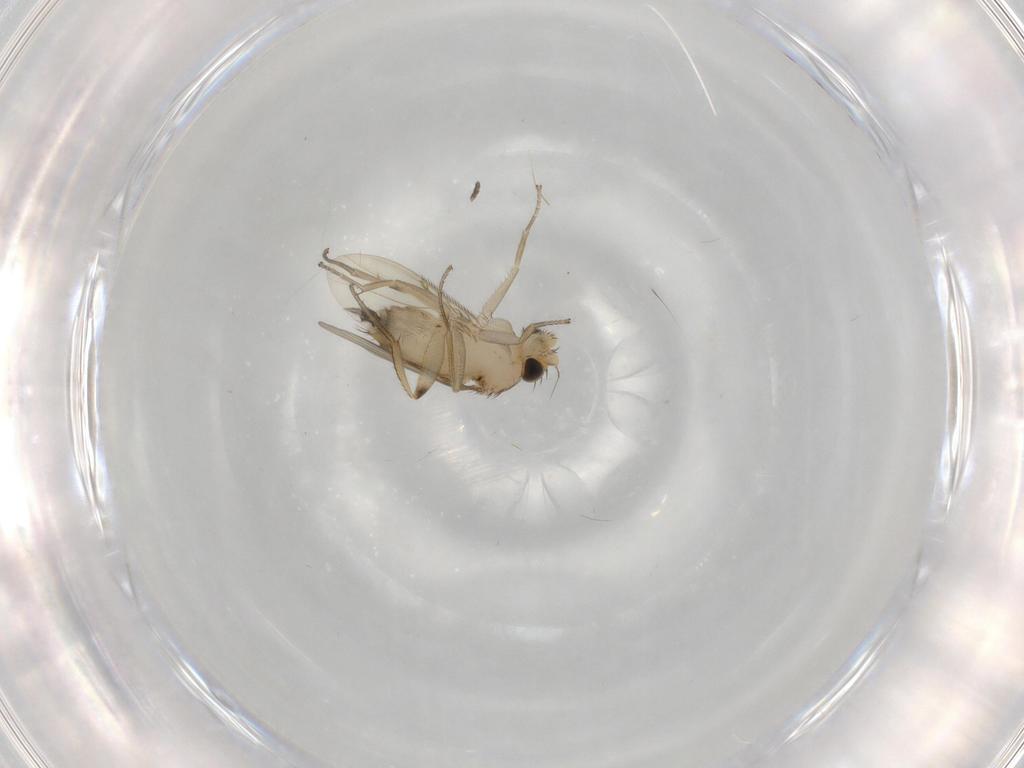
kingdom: Animalia
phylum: Arthropoda
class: Insecta
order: Diptera
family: Phoridae
